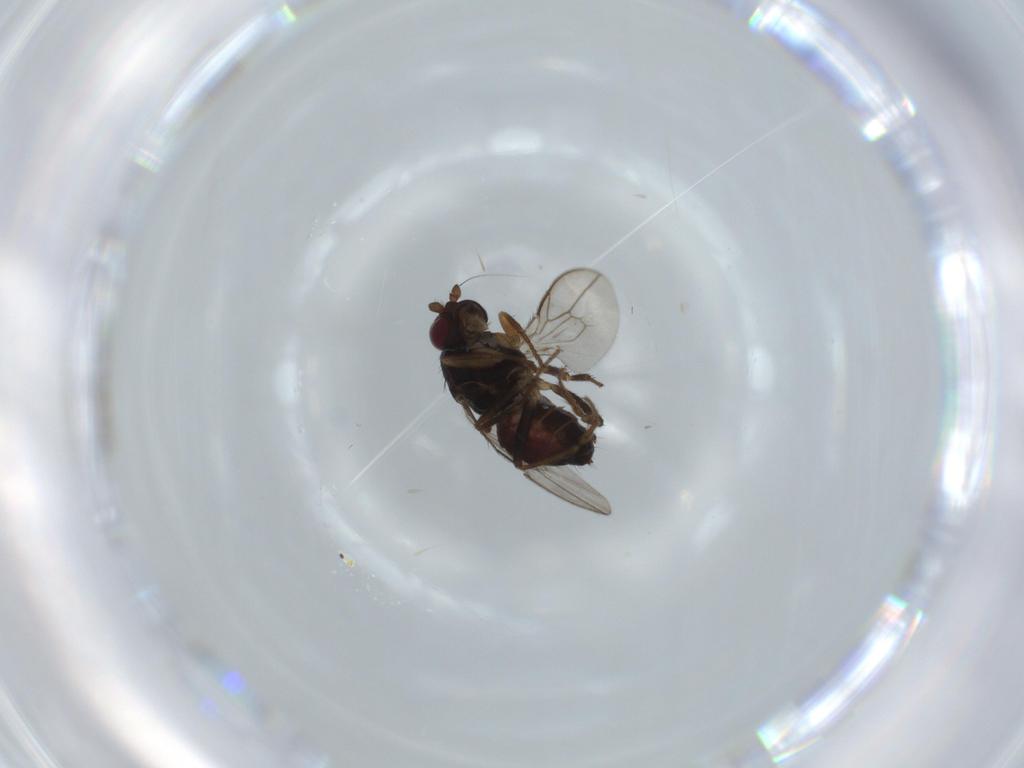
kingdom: Animalia
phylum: Arthropoda
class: Insecta
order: Diptera
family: Sphaeroceridae
